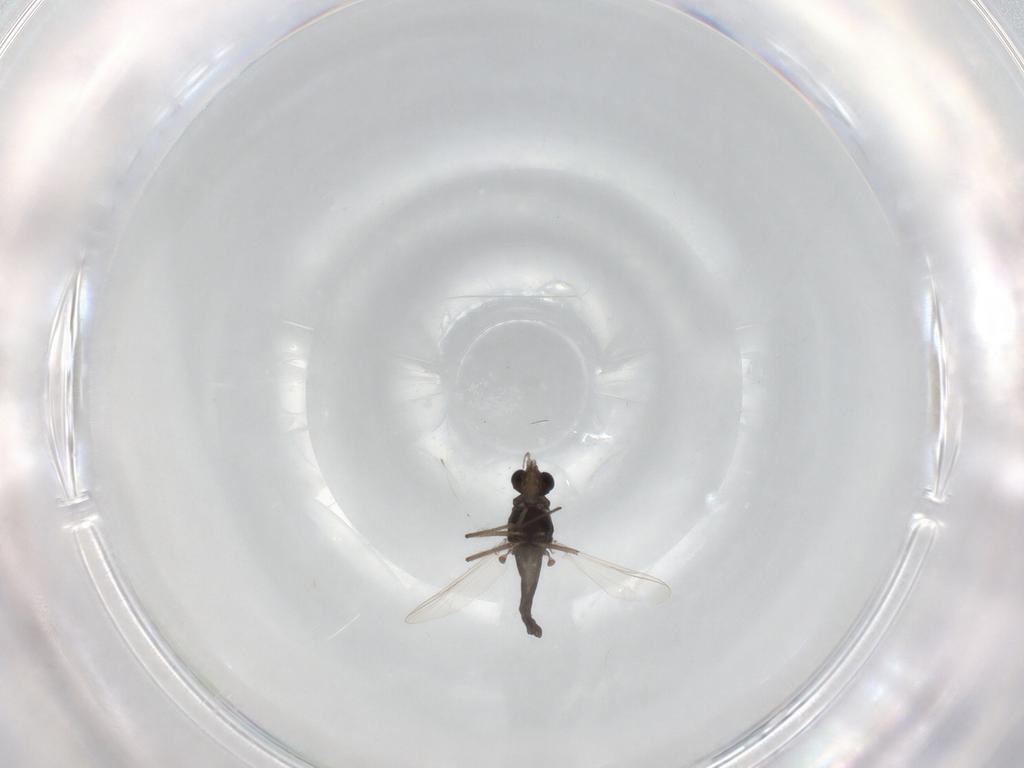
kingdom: Animalia
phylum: Arthropoda
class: Insecta
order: Diptera
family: Chironomidae
